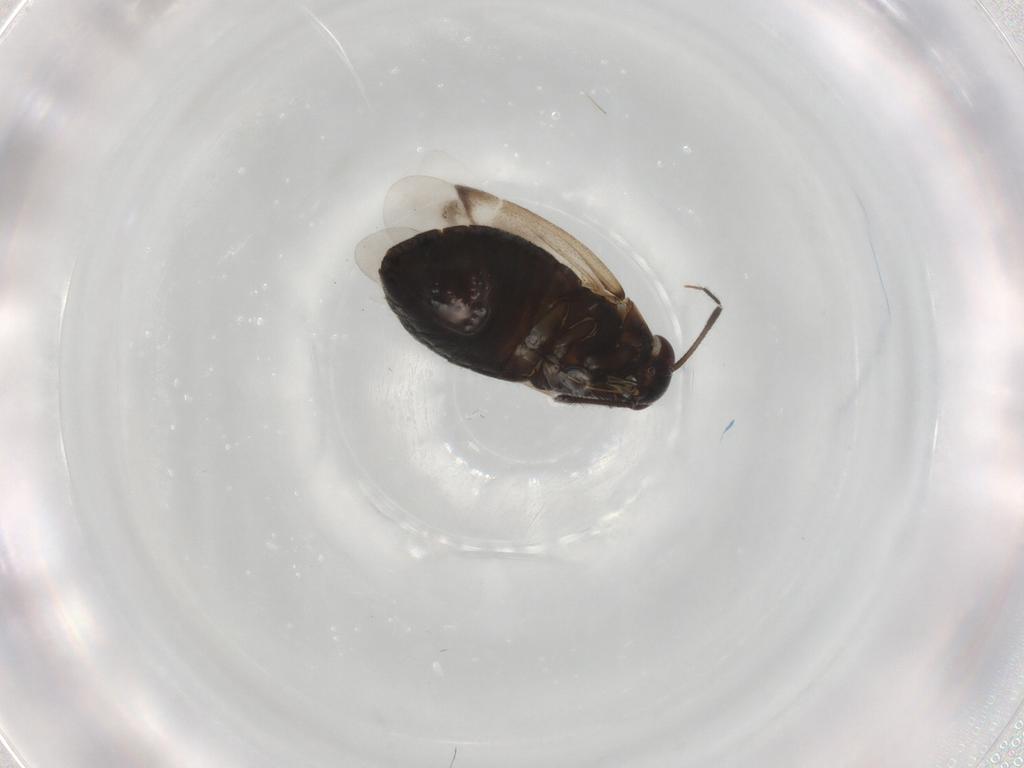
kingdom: Animalia
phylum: Arthropoda
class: Insecta
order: Hemiptera
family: Miridae
